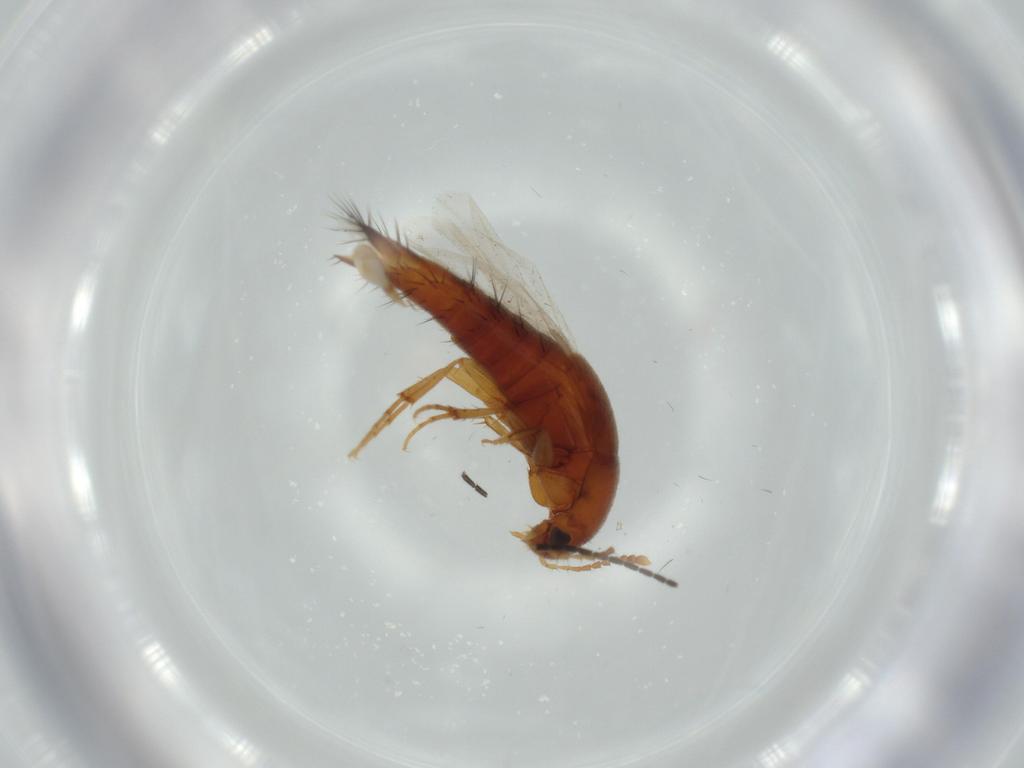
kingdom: Animalia
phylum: Arthropoda
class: Insecta
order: Coleoptera
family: Staphylinidae
